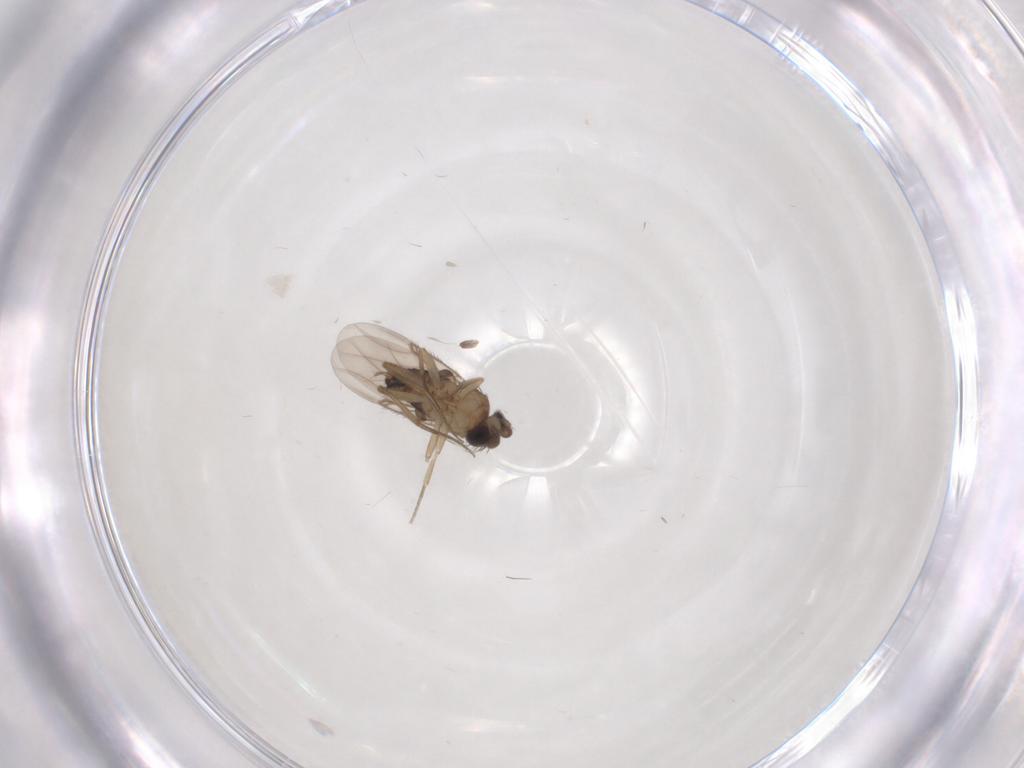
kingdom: Animalia
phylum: Arthropoda
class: Insecta
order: Diptera
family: Phoridae
